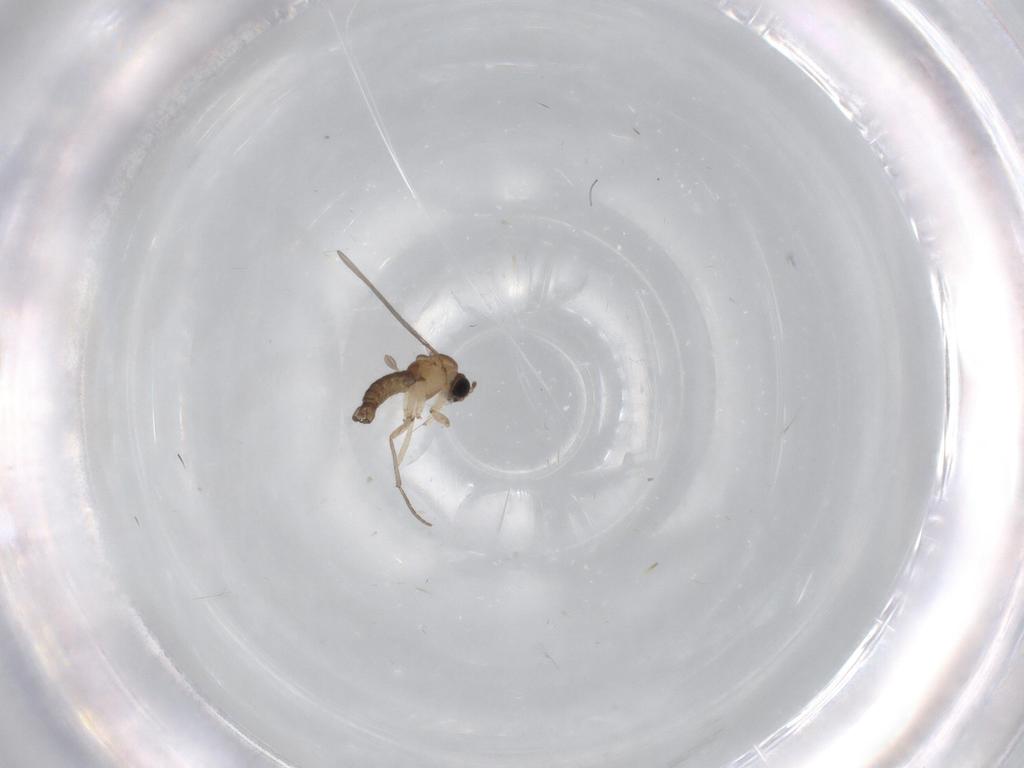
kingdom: Animalia
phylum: Arthropoda
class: Insecta
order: Diptera
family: Sciaridae
